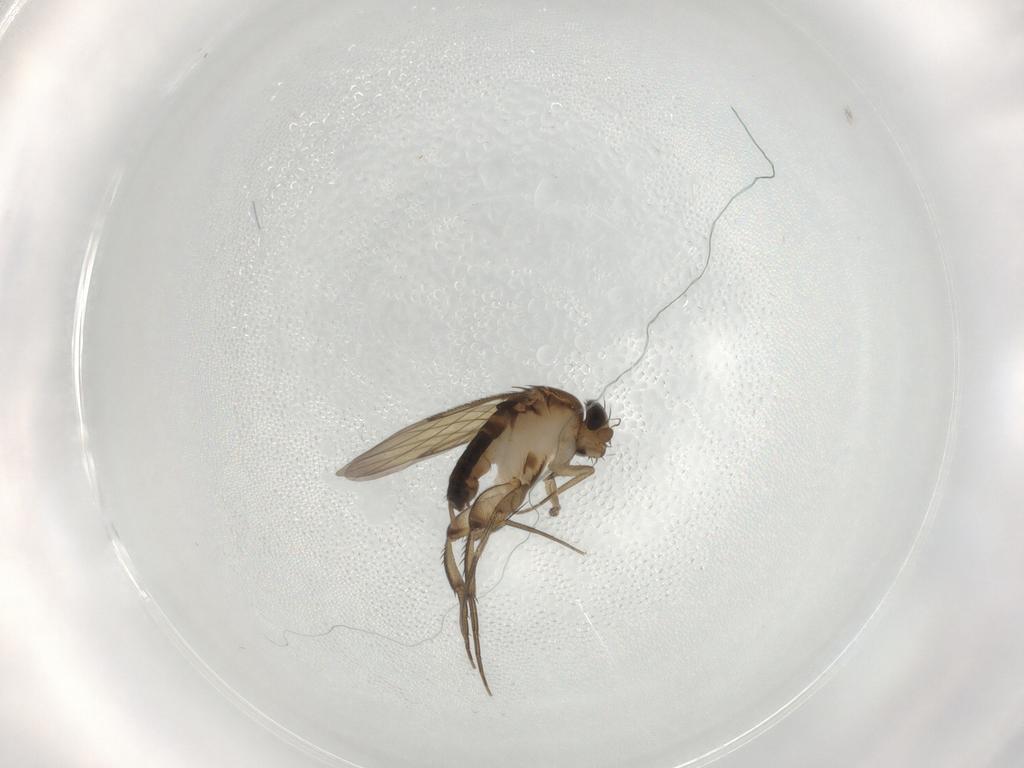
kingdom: Animalia
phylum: Arthropoda
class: Insecta
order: Diptera
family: Phoridae
